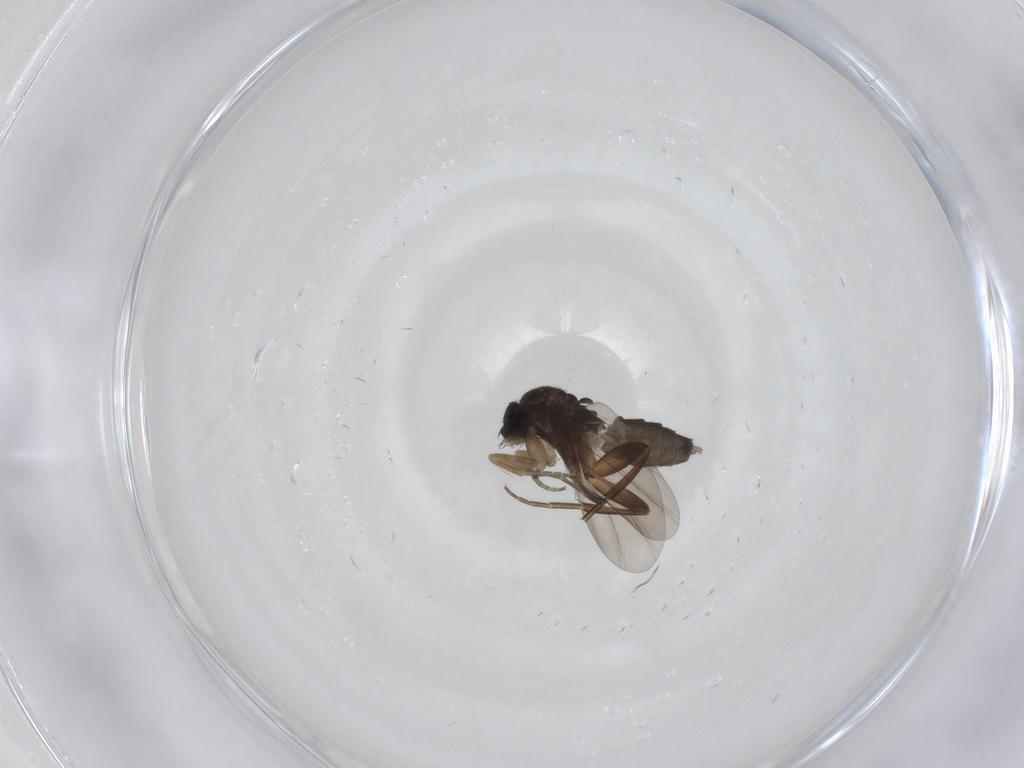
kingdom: Animalia
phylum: Arthropoda
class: Insecta
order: Diptera
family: Phoridae
